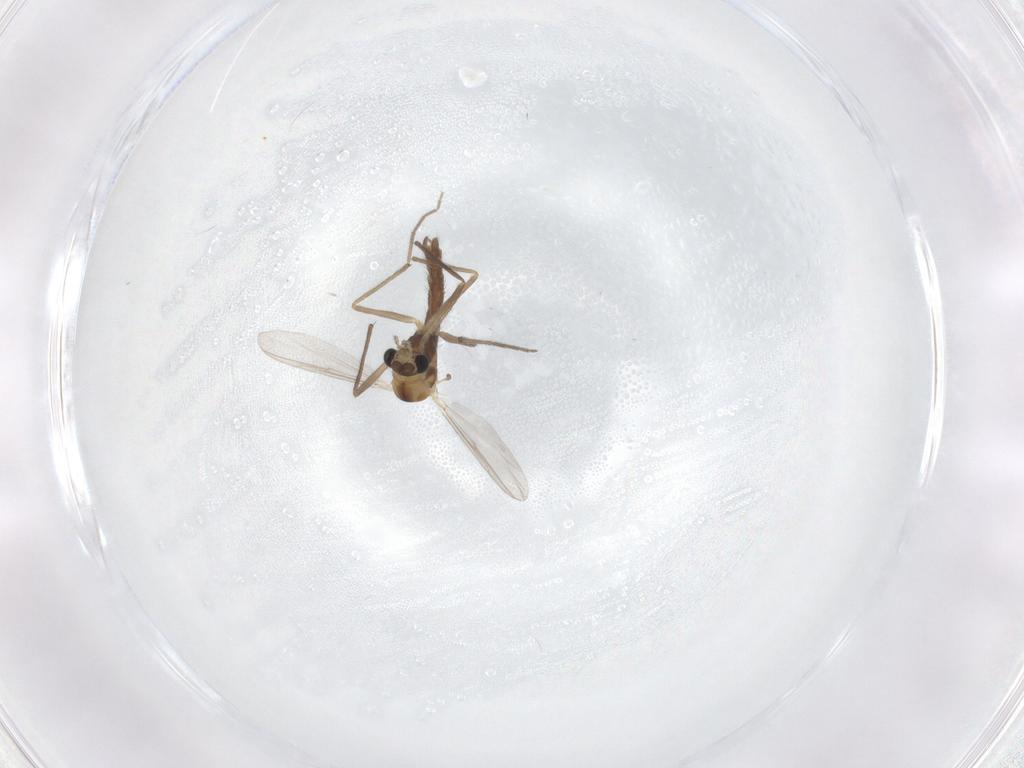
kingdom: Animalia
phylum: Arthropoda
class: Insecta
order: Diptera
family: Chironomidae
